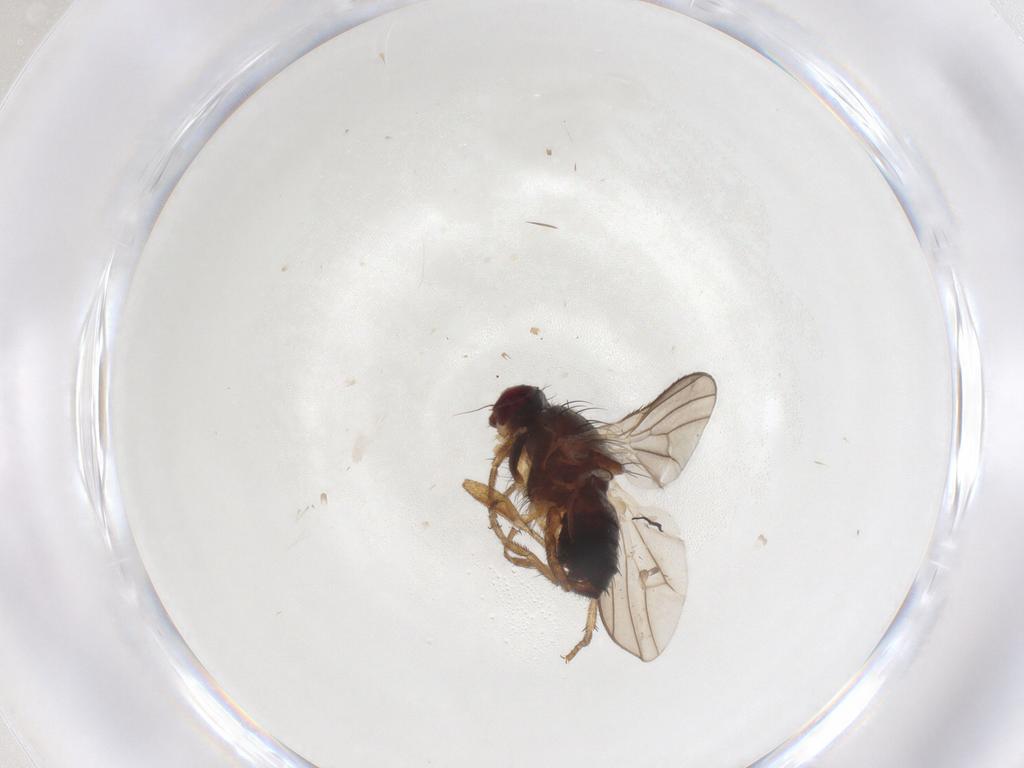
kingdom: Animalia
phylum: Arthropoda
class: Insecta
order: Diptera
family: Heleomyzidae
